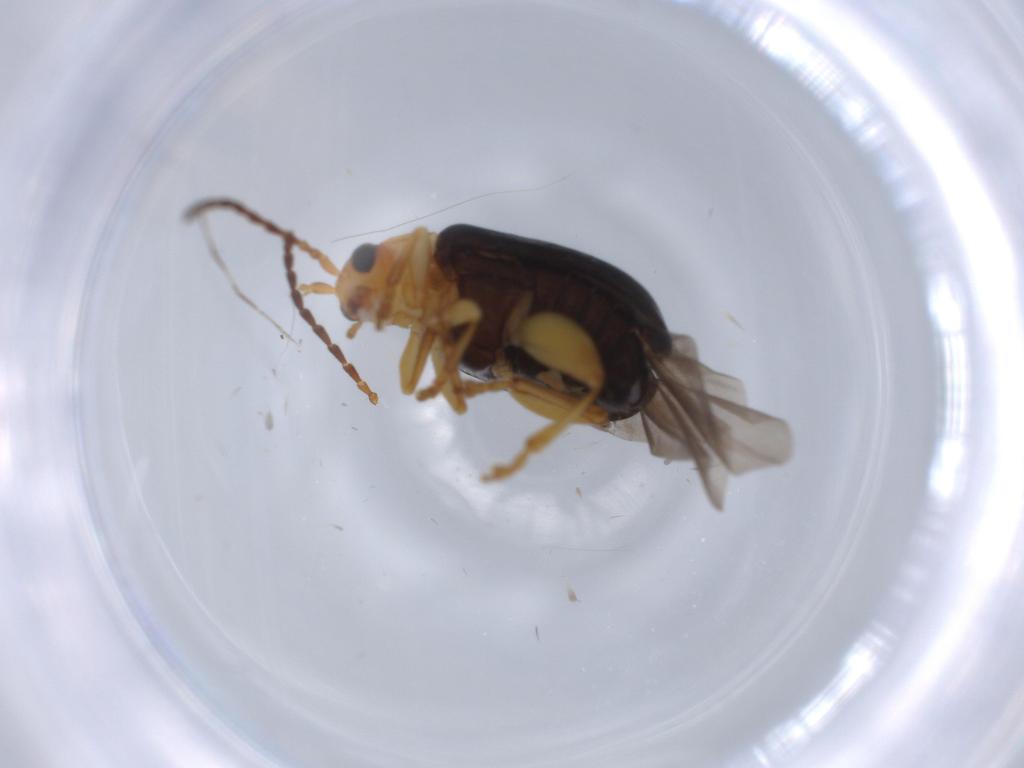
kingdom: Animalia
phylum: Arthropoda
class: Insecta
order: Coleoptera
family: Chrysomelidae
